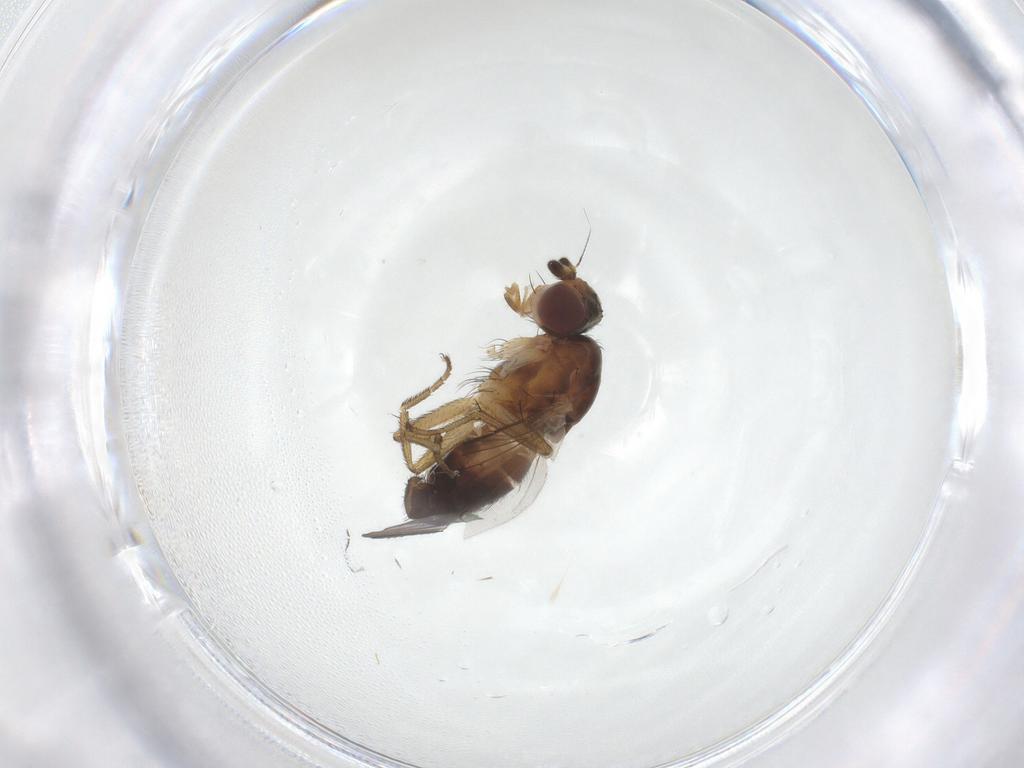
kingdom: Animalia
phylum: Arthropoda
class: Insecta
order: Diptera
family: Heleomyzidae
